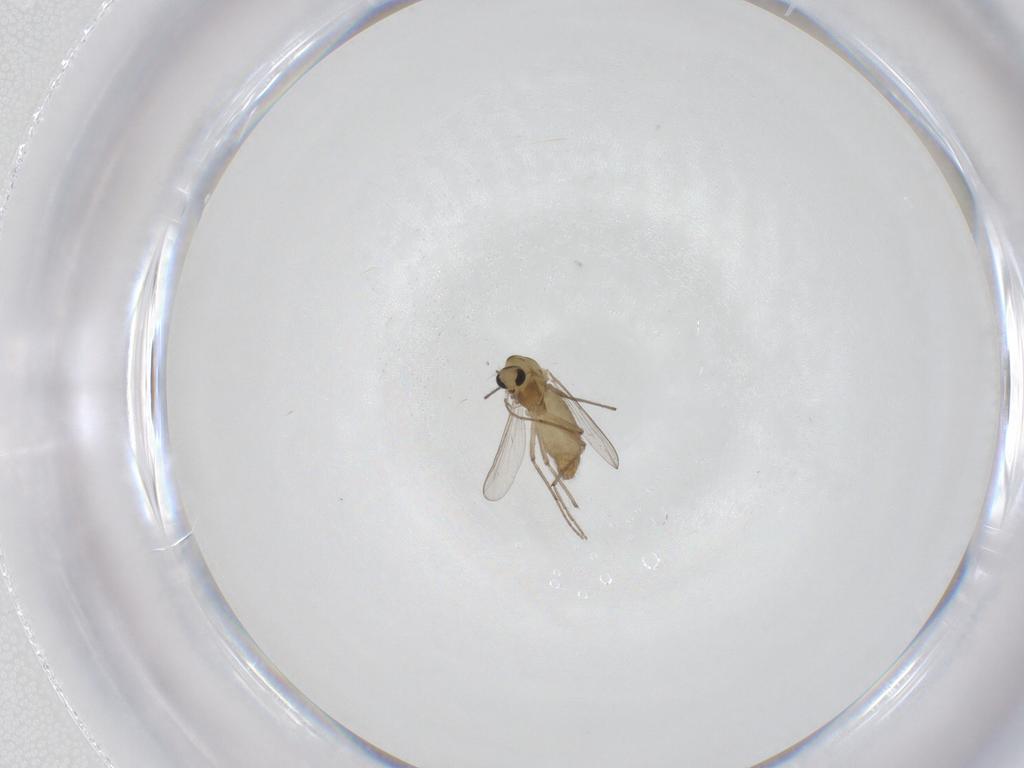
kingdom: Animalia
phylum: Arthropoda
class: Insecta
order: Diptera
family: Chironomidae
